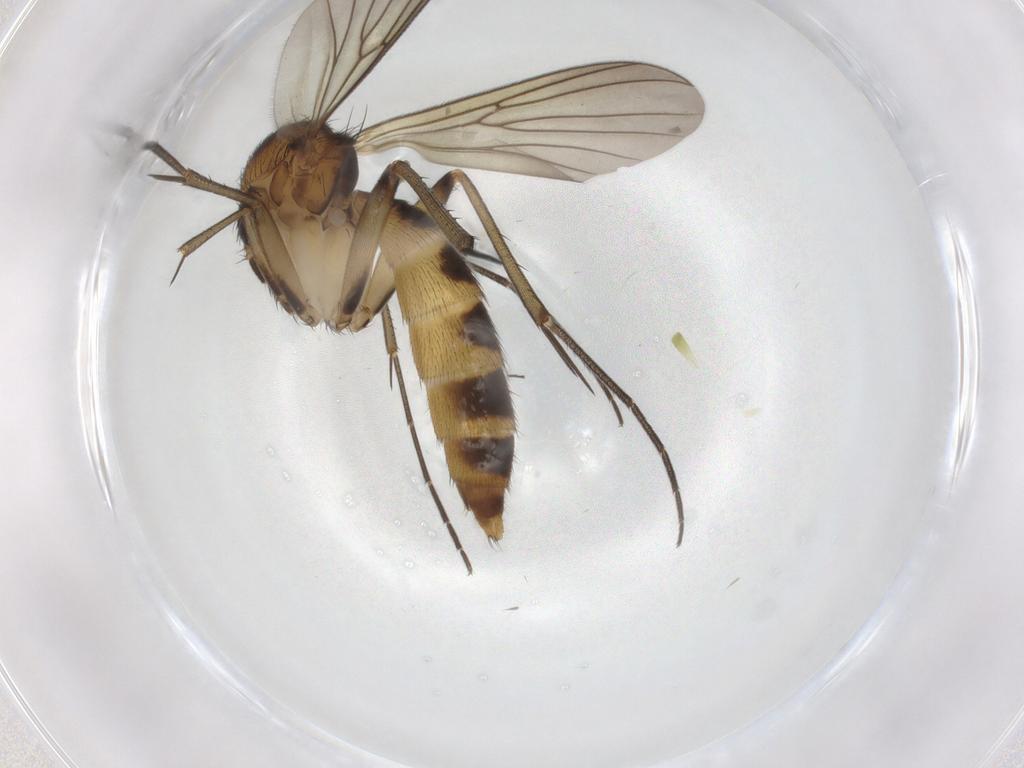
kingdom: Animalia
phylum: Arthropoda
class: Insecta
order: Diptera
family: Mycetophilidae
